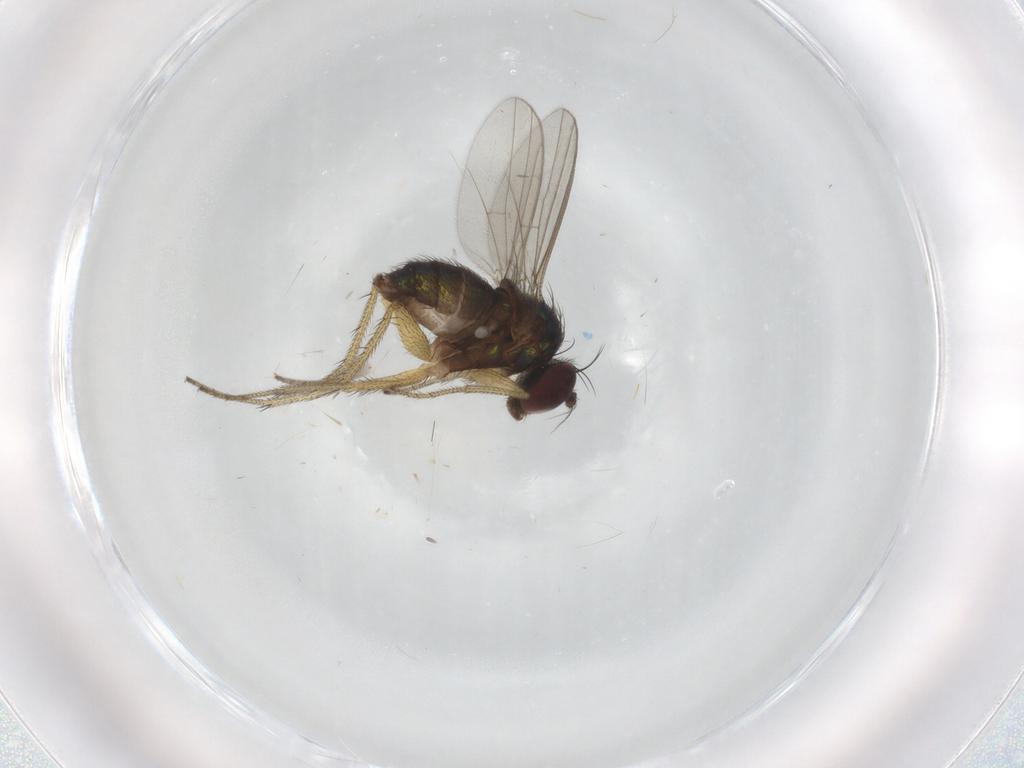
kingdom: Animalia
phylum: Arthropoda
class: Insecta
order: Diptera
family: Dolichopodidae
